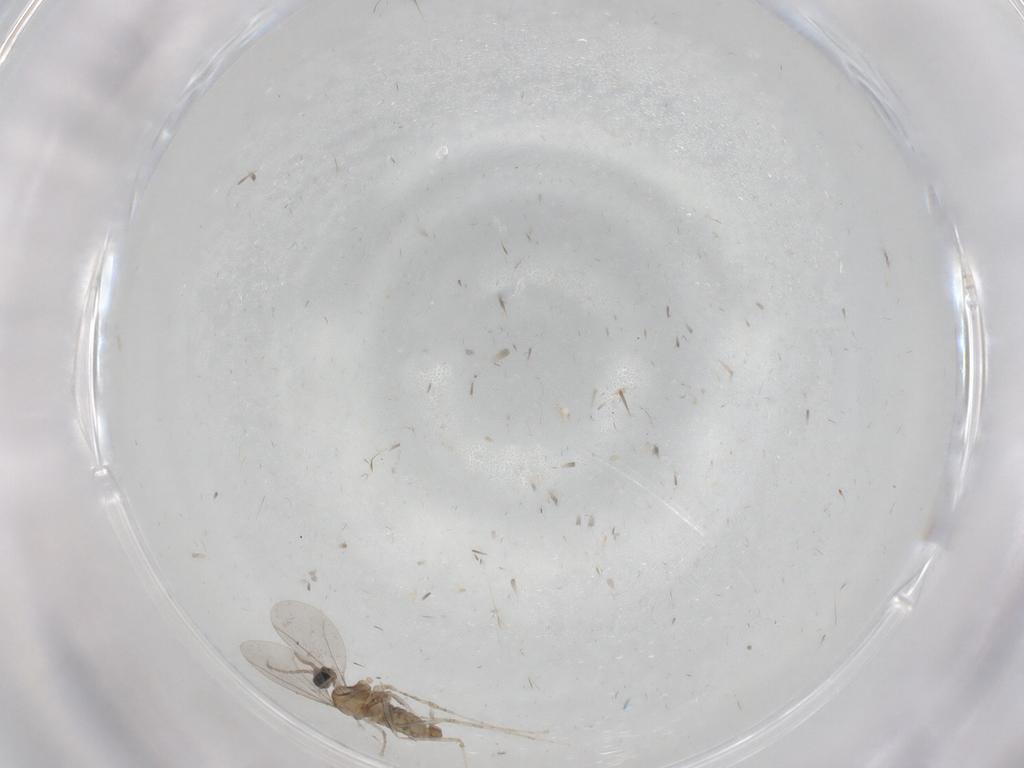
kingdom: Animalia
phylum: Arthropoda
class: Insecta
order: Diptera
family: Cecidomyiidae
